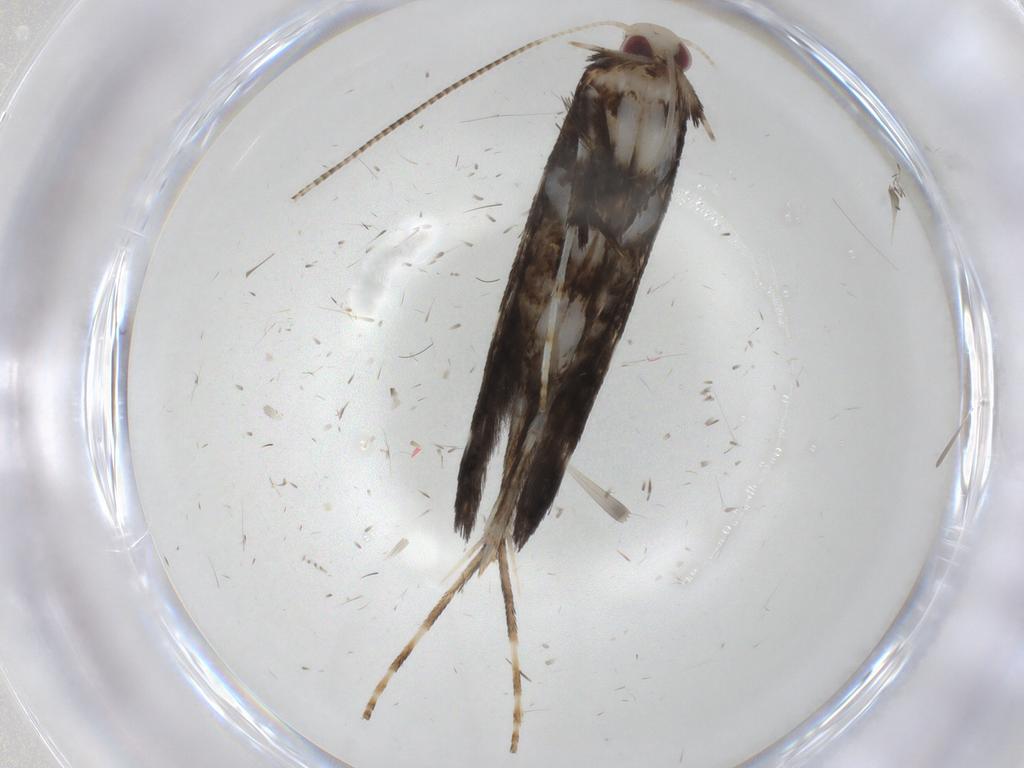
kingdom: Animalia
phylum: Arthropoda
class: Insecta
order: Lepidoptera
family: Gracillariidae
